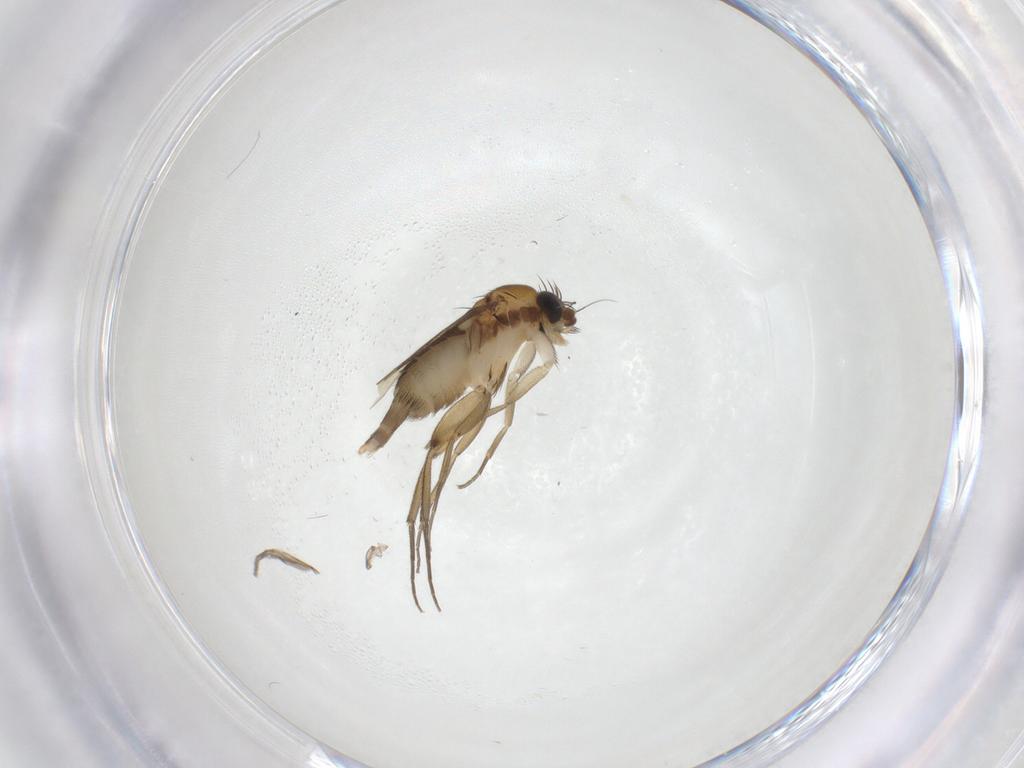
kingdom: Animalia
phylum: Arthropoda
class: Insecta
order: Diptera
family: Phoridae
